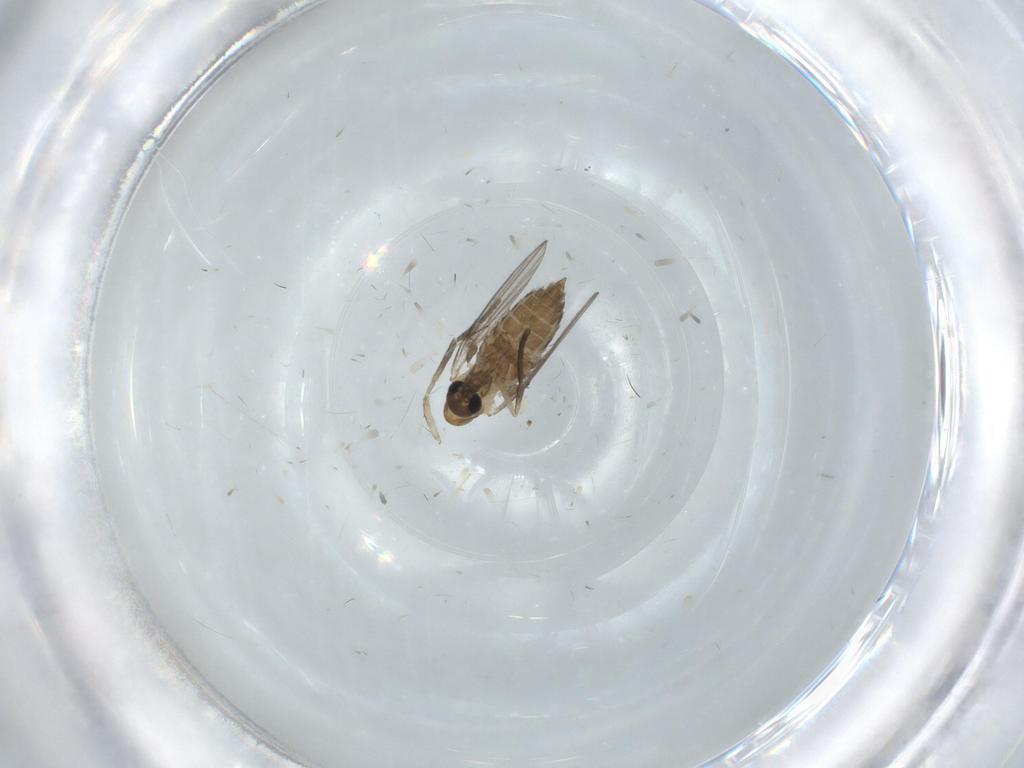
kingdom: Animalia
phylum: Arthropoda
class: Insecta
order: Diptera
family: Psychodidae
